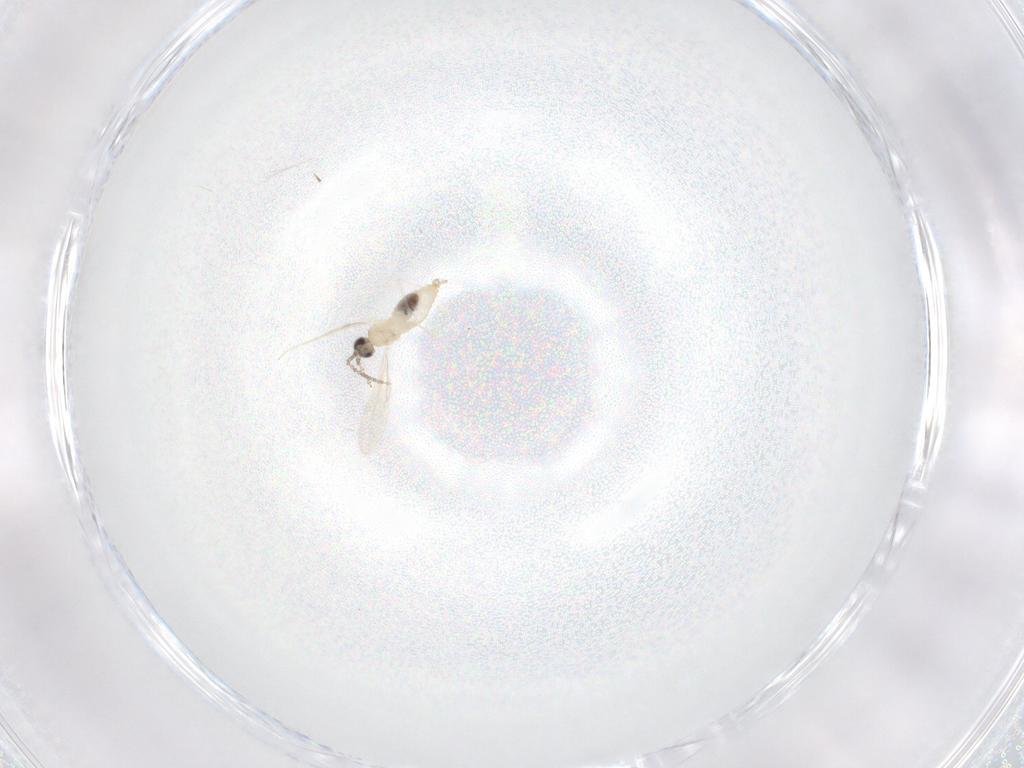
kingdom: Animalia
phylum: Arthropoda
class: Insecta
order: Diptera
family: Cecidomyiidae
